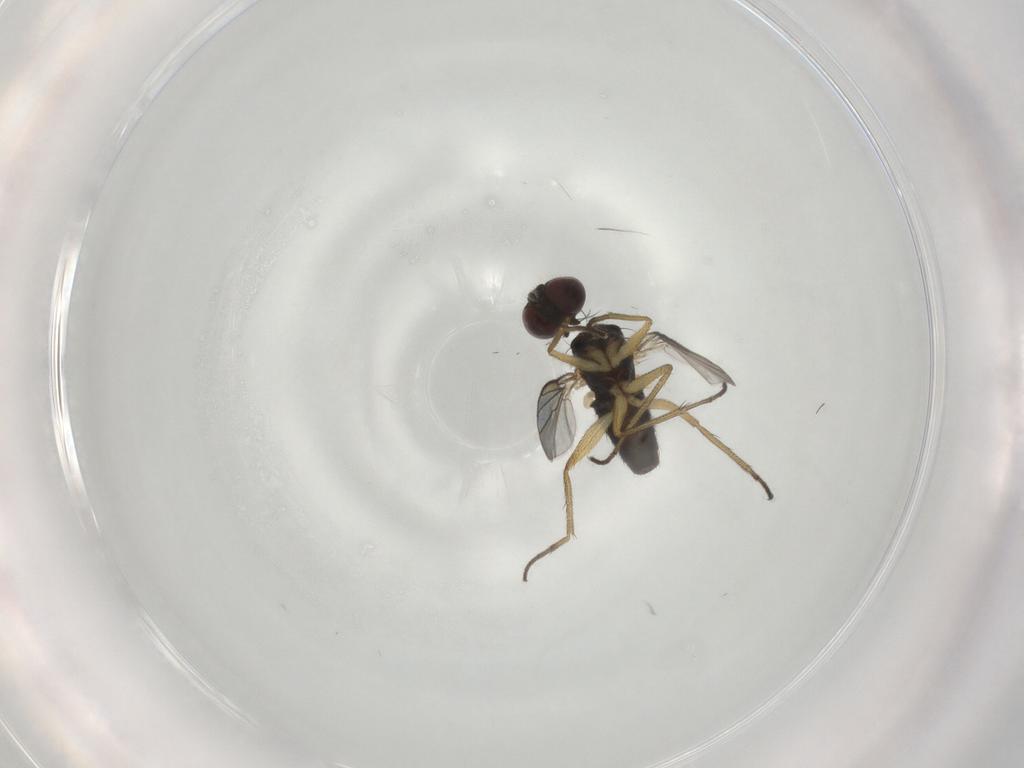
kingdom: Animalia
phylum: Arthropoda
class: Insecta
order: Diptera
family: Dolichopodidae
